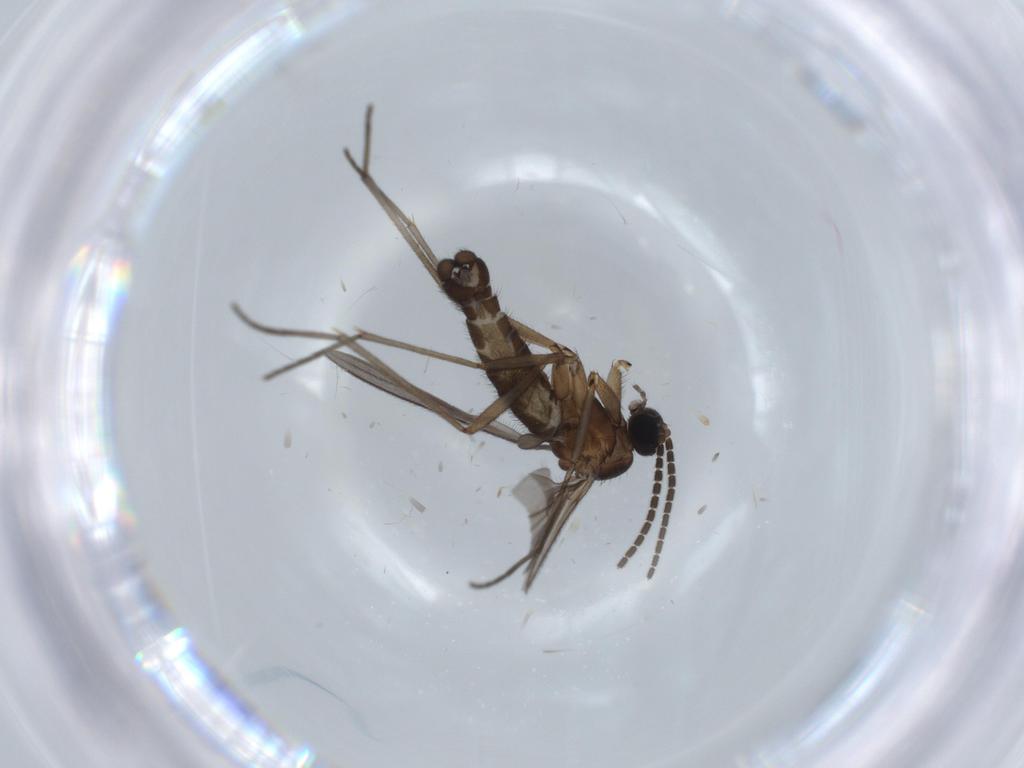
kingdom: Animalia
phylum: Arthropoda
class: Insecta
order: Diptera
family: Sciaridae
